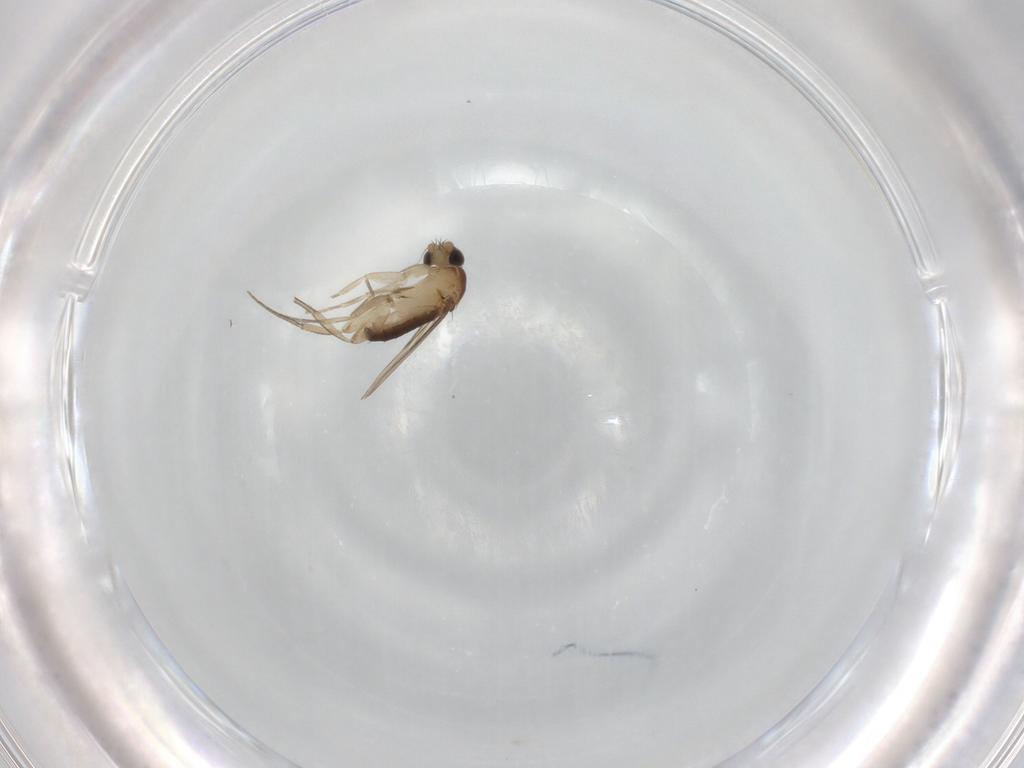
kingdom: Animalia
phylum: Arthropoda
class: Insecta
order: Diptera
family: Phoridae
